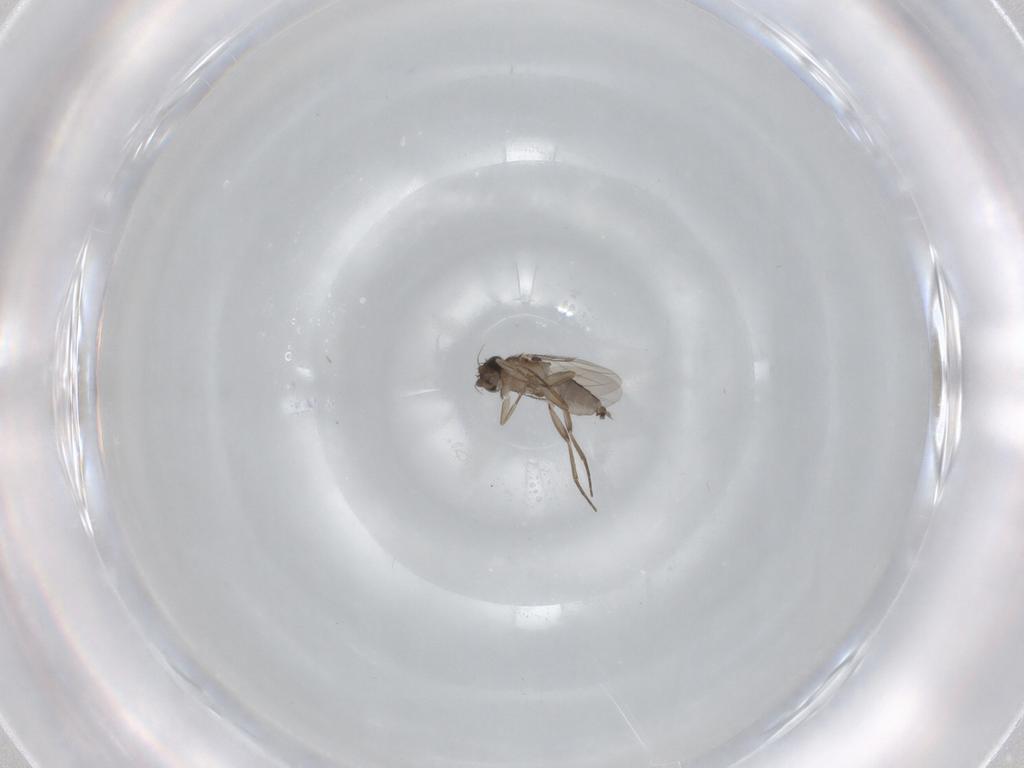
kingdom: Animalia
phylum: Arthropoda
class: Insecta
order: Diptera
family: Phoridae
